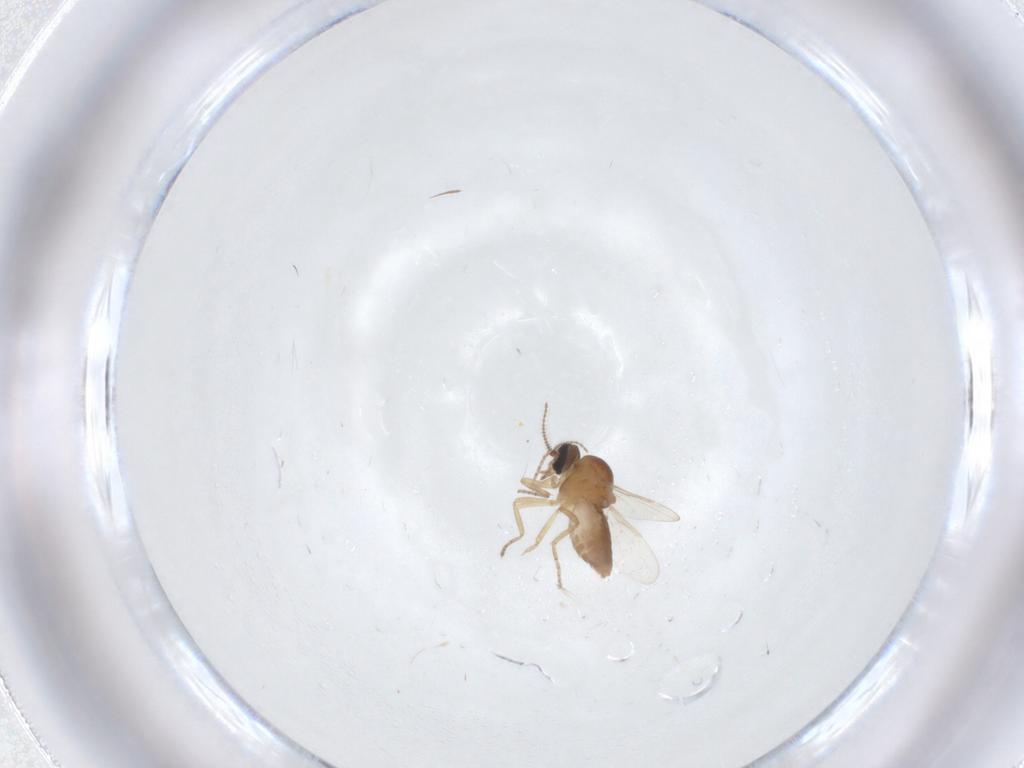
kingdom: Animalia
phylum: Arthropoda
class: Insecta
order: Diptera
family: Ceratopogonidae
